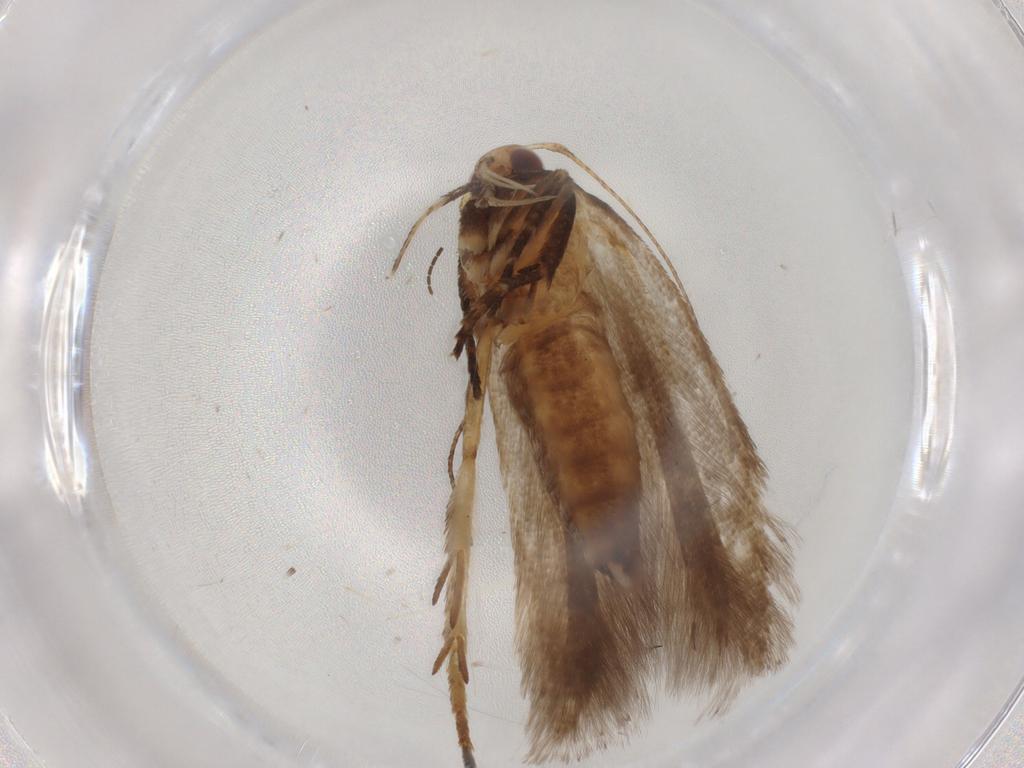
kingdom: Animalia
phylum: Arthropoda
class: Insecta
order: Lepidoptera
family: Gelechiidae
